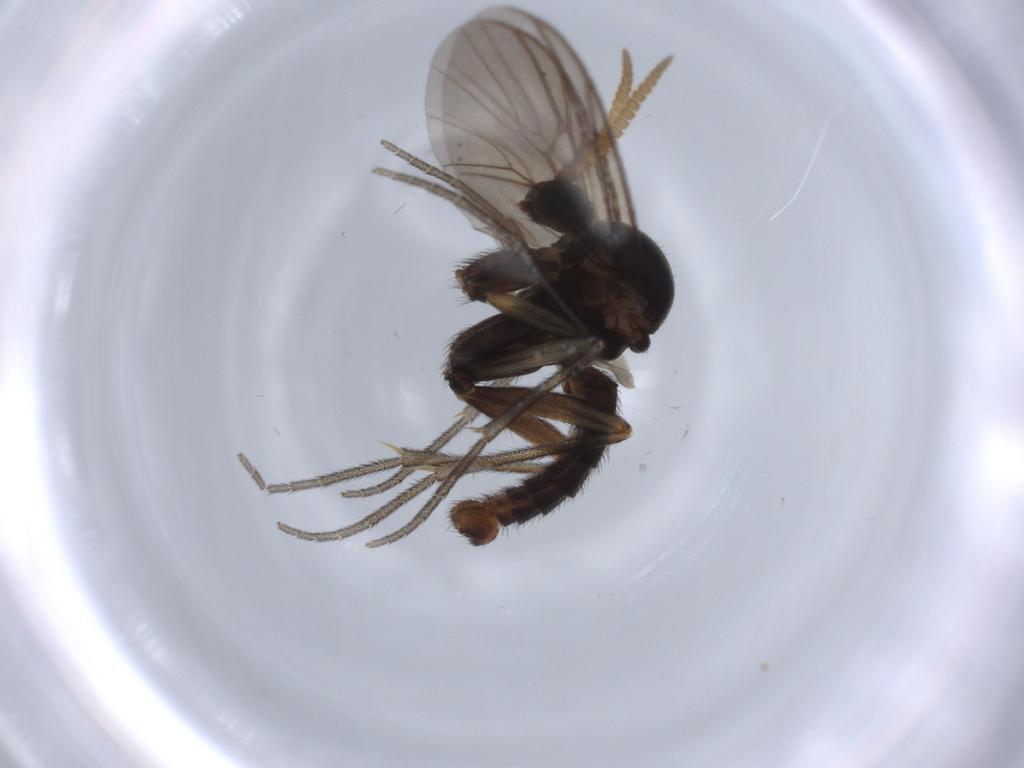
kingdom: Animalia
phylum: Arthropoda
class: Insecta
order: Diptera
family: Mycetophilidae
